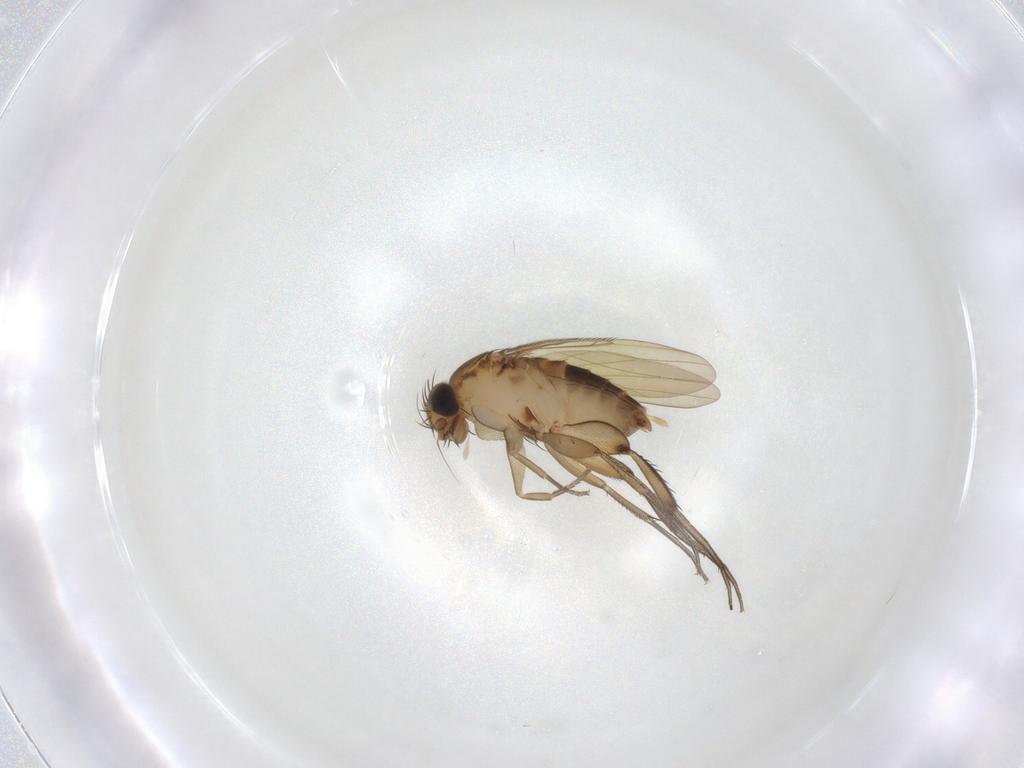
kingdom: Animalia
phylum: Arthropoda
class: Insecta
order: Diptera
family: Phoridae
